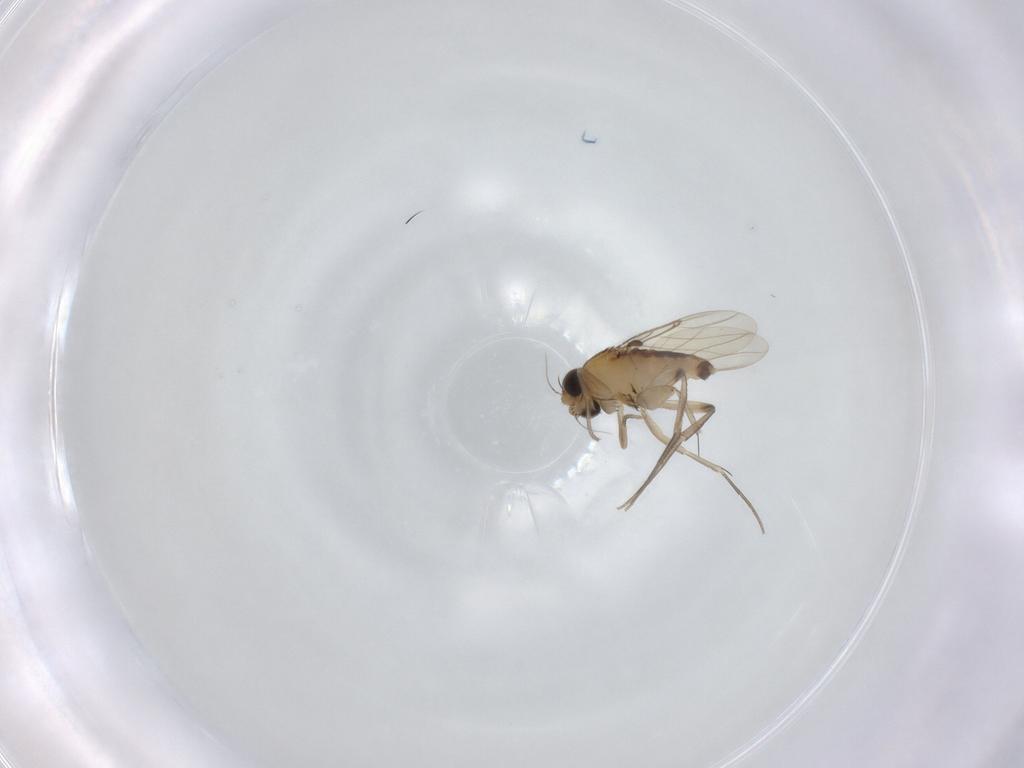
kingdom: Animalia
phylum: Arthropoda
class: Insecta
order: Diptera
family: Phoridae
